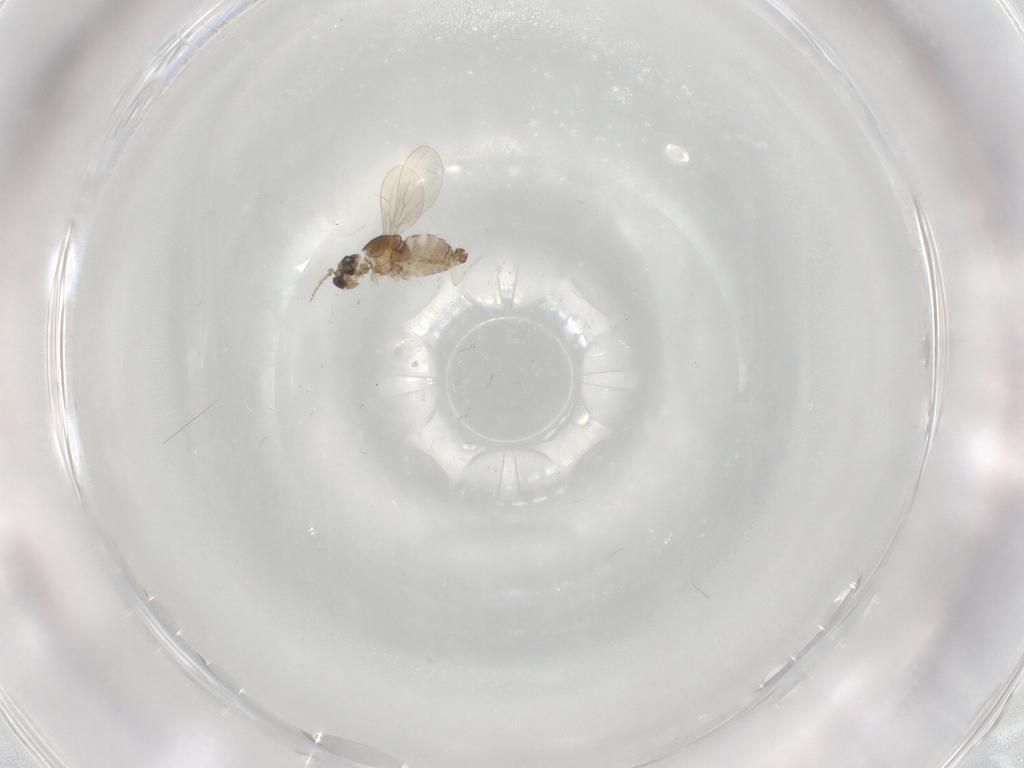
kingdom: Animalia
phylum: Arthropoda
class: Insecta
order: Diptera
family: Cecidomyiidae
